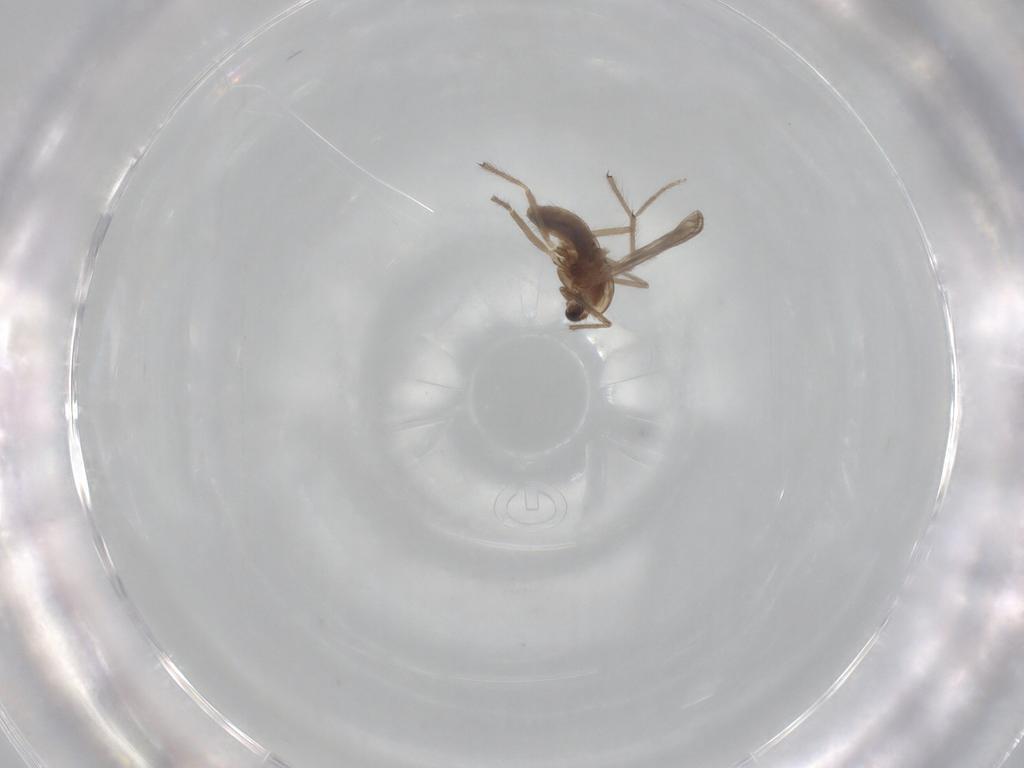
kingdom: Animalia
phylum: Arthropoda
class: Insecta
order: Diptera
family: Chironomidae
